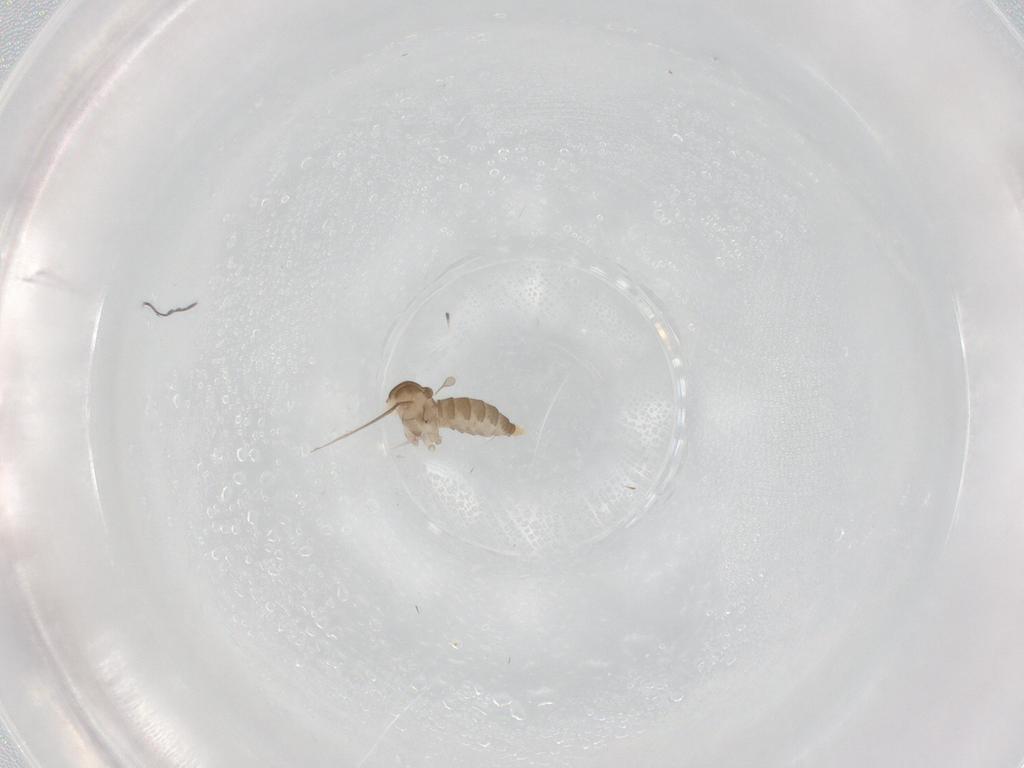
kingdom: Animalia
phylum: Arthropoda
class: Insecta
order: Diptera
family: Cecidomyiidae
